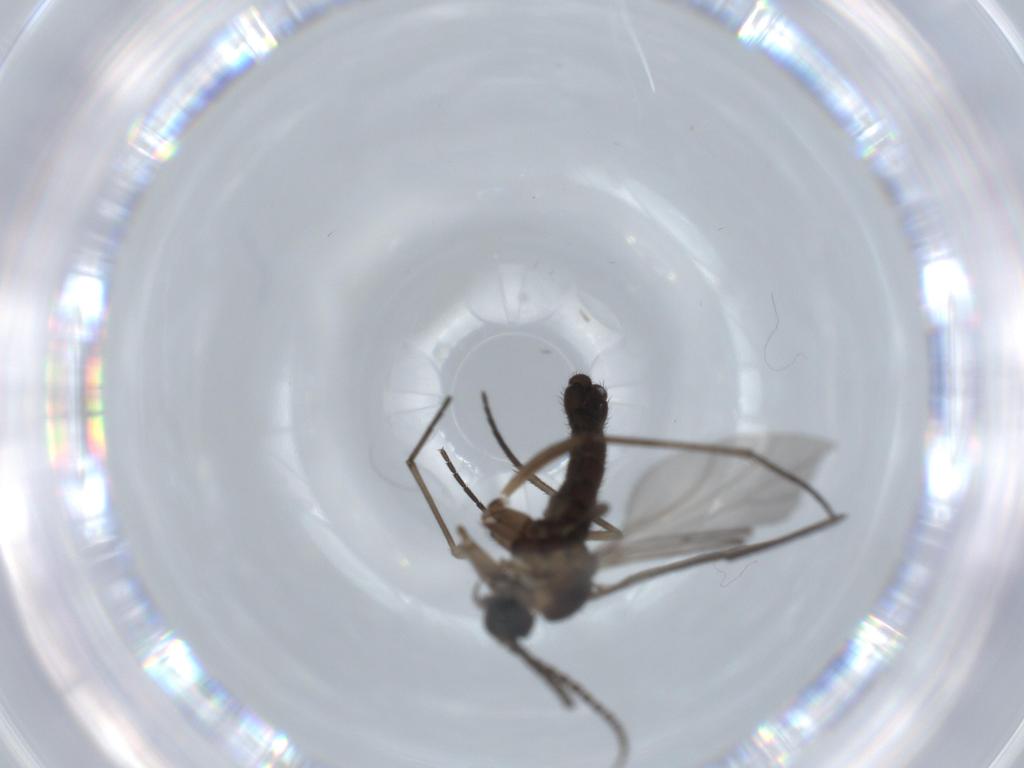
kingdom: Animalia
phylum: Arthropoda
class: Insecta
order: Diptera
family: Sciaridae
